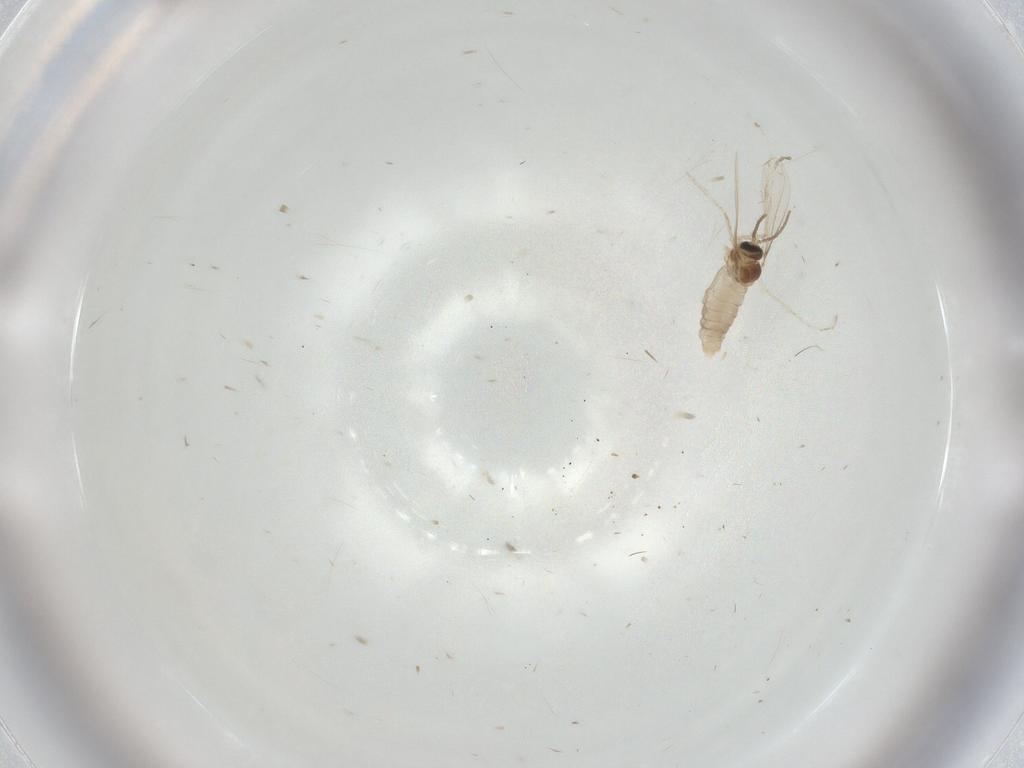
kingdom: Animalia
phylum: Arthropoda
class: Insecta
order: Diptera
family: Cecidomyiidae
